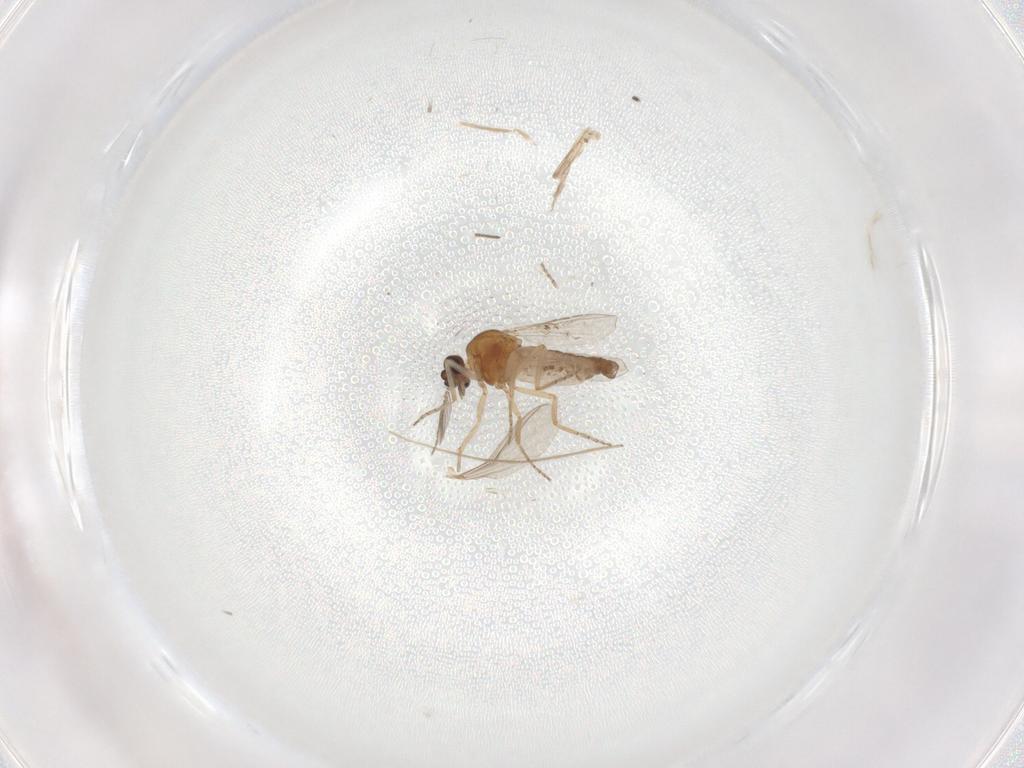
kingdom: Animalia
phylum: Arthropoda
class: Insecta
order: Diptera
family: Ceratopogonidae
